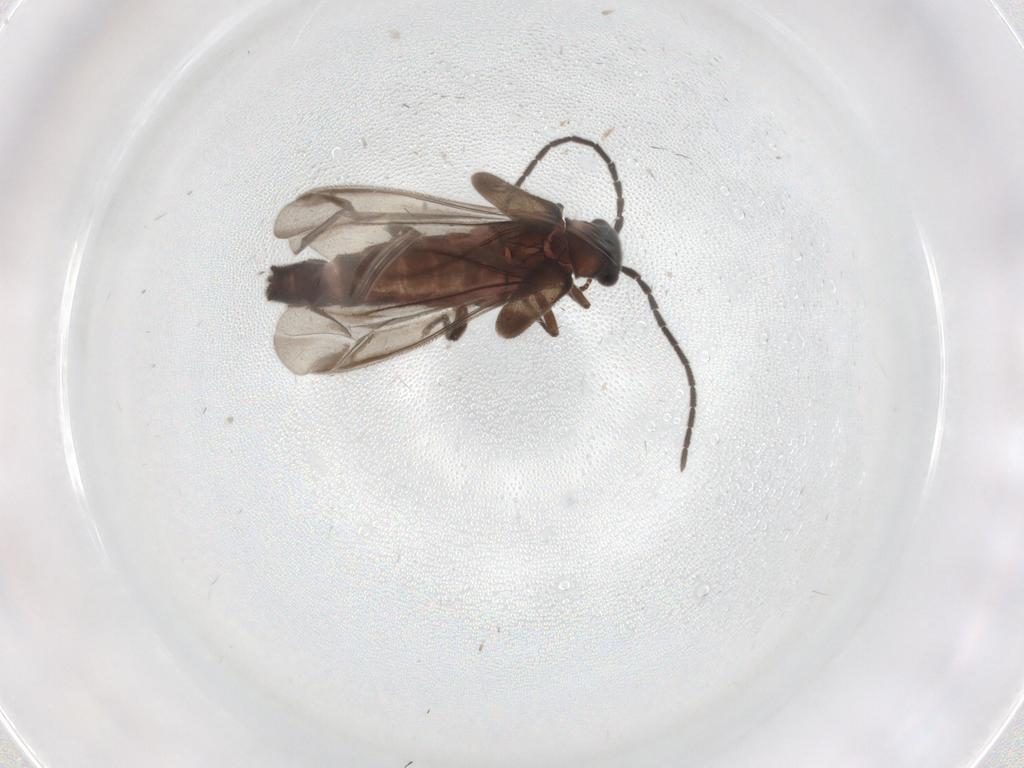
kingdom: Animalia
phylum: Arthropoda
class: Insecta
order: Coleoptera
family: Cantharidae
